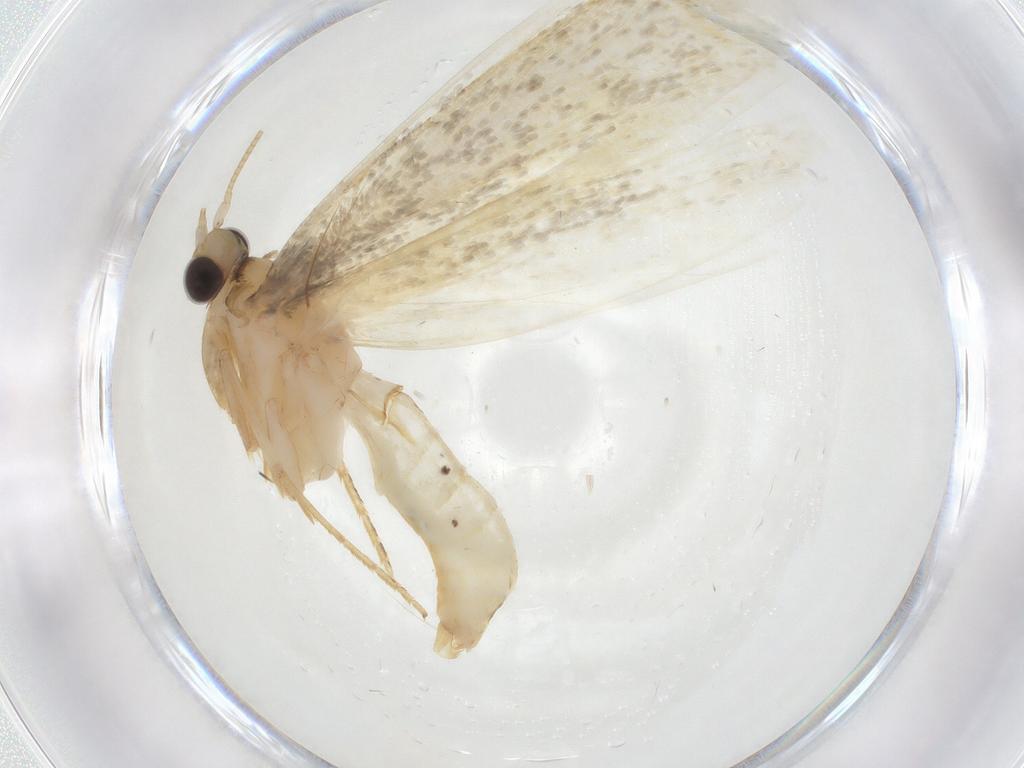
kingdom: Animalia
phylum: Arthropoda
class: Insecta
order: Lepidoptera
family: Tineidae
